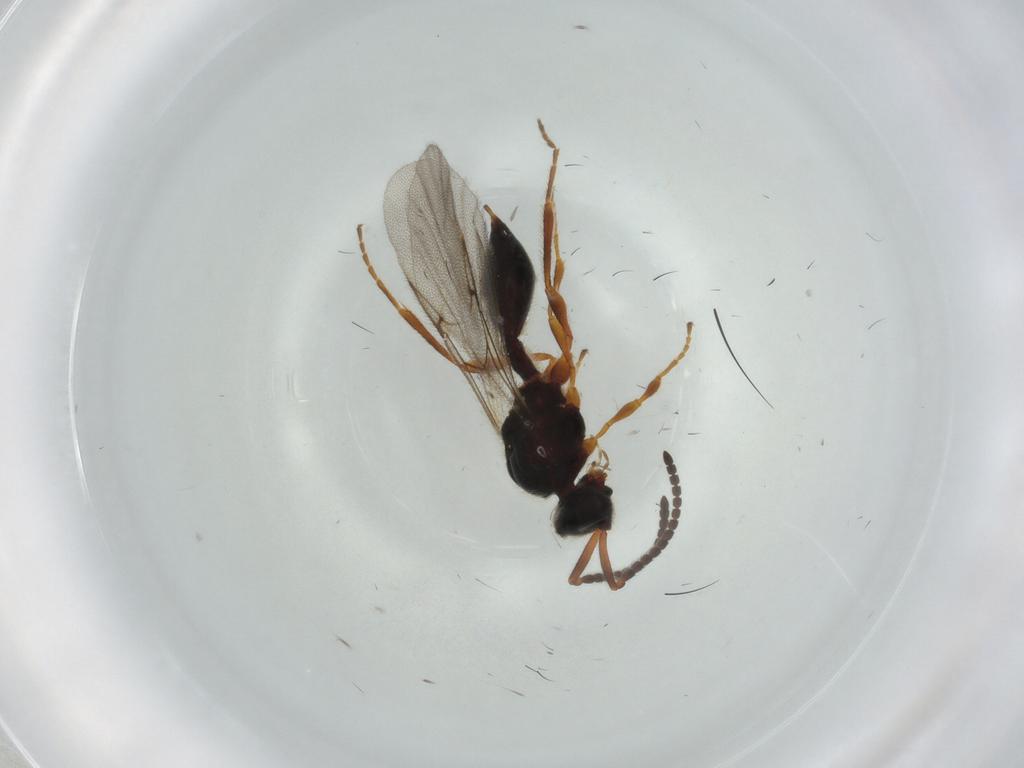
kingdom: Animalia
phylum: Arthropoda
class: Insecta
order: Hymenoptera
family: Diapriidae
